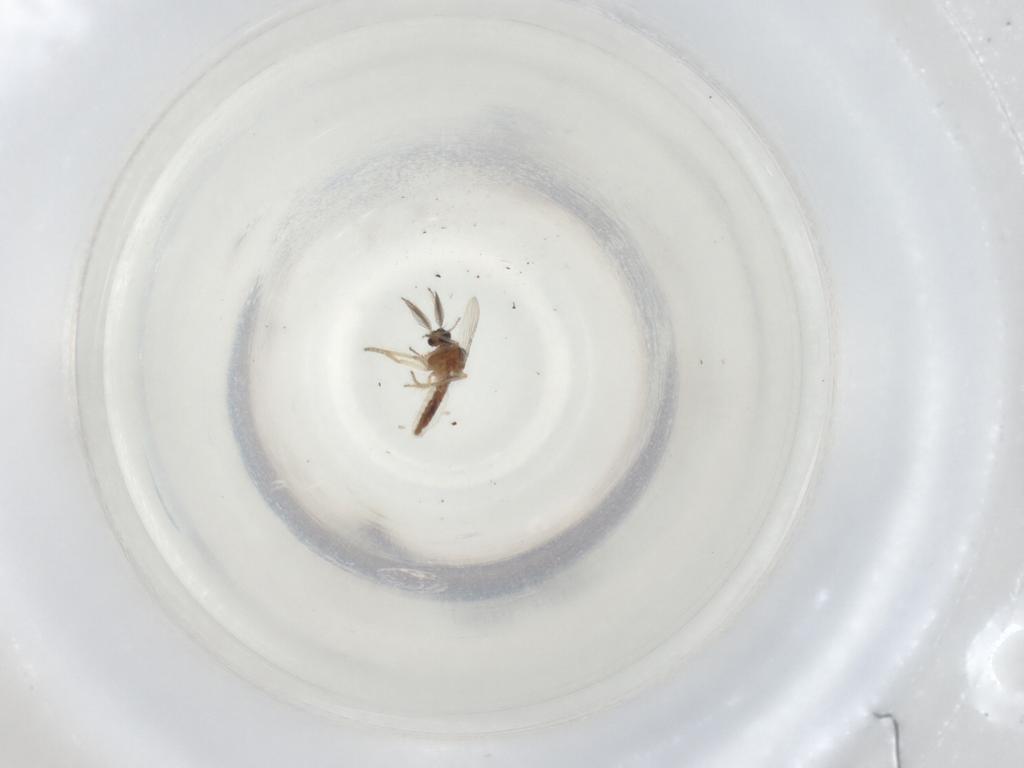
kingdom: Animalia
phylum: Arthropoda
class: Insecta
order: Diptera
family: Ceratopogonidae
